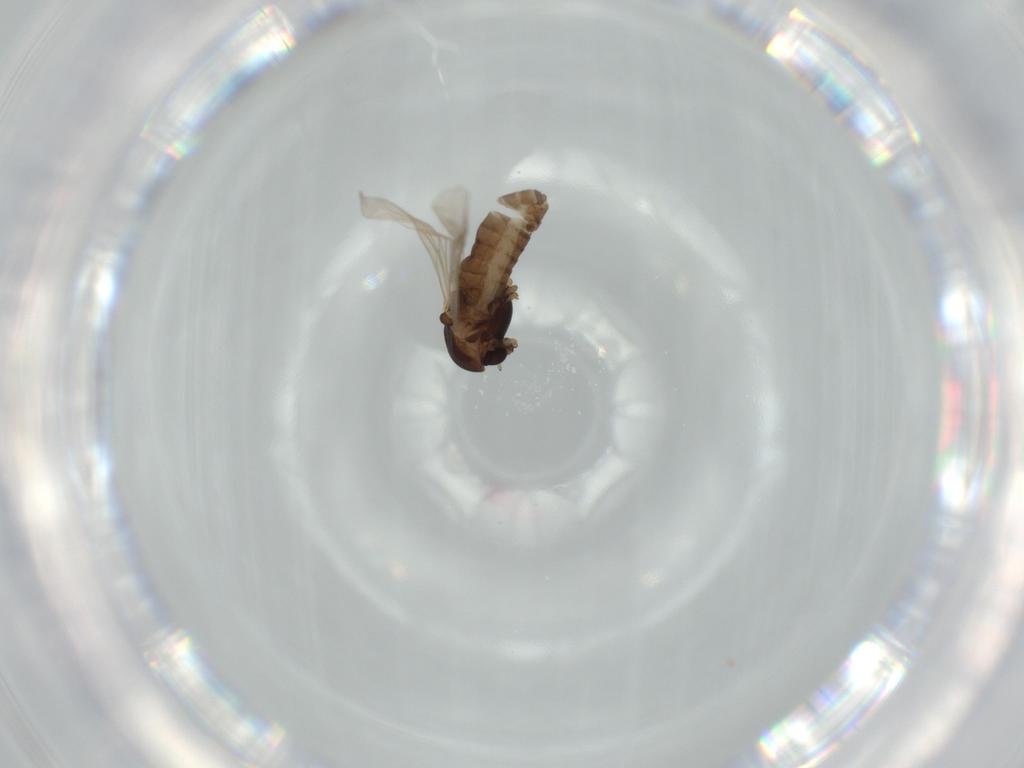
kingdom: Animalia
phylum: Arthropoda
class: Insecta
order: Diptera
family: Chironomidae
